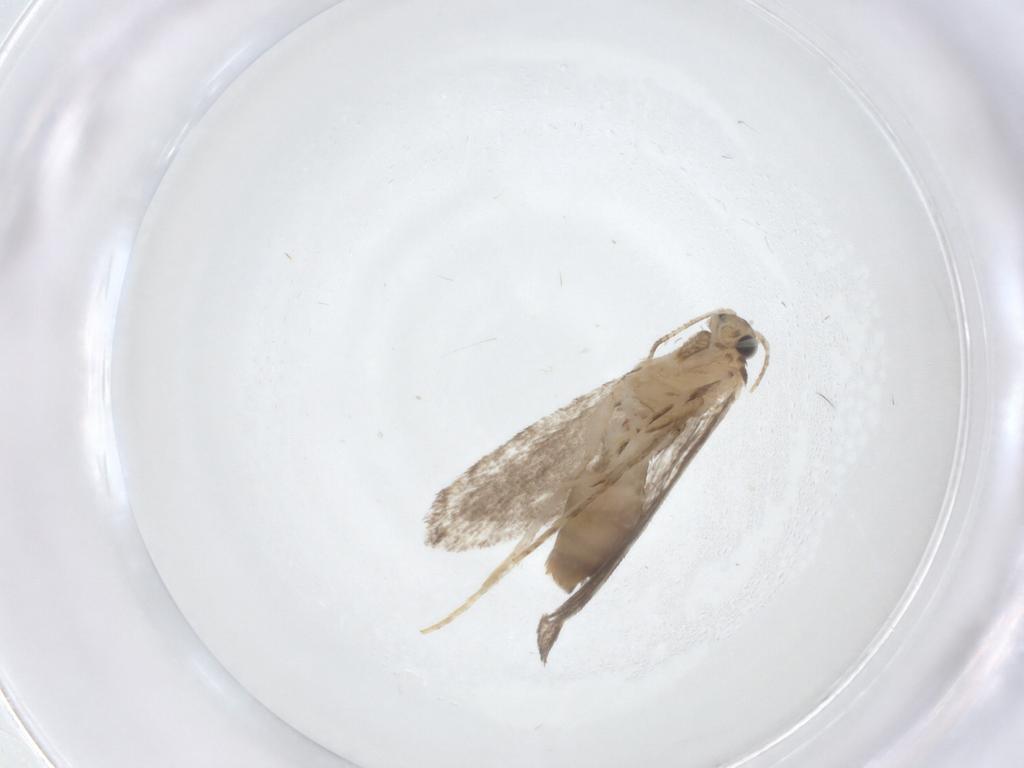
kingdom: Animalia
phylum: Arthropoda
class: Insecta
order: Lepidoptera
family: Tineidae
